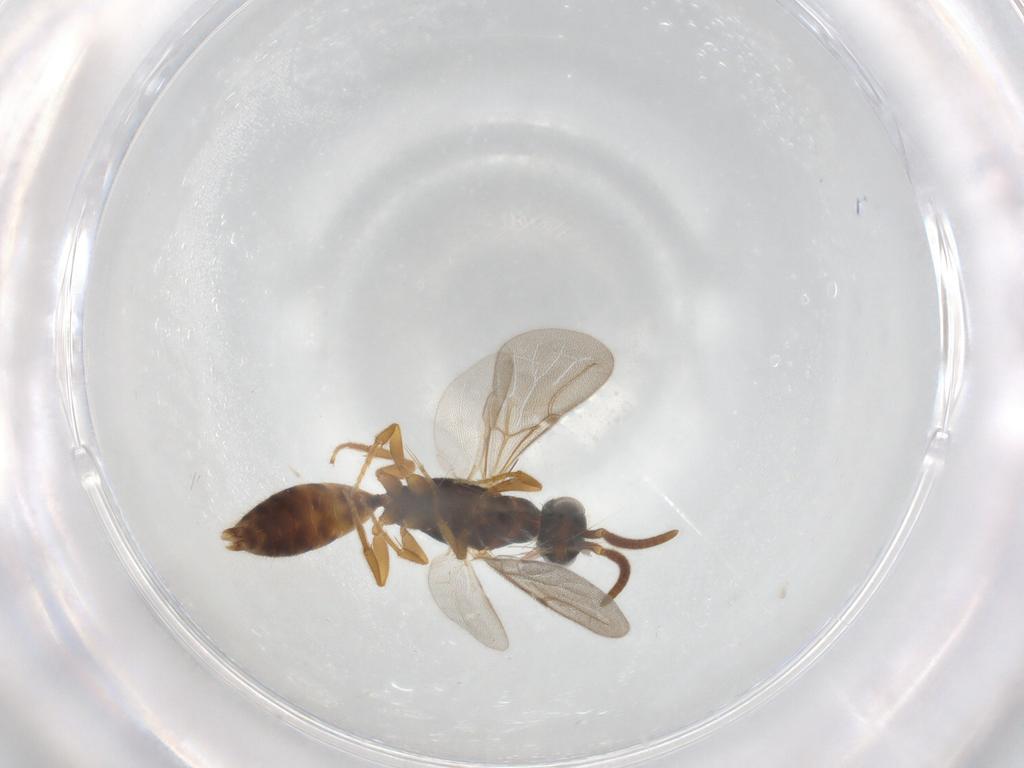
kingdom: Animalia
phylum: Arthropoda
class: Insecta
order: Hymenoptera
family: Bethylidae
